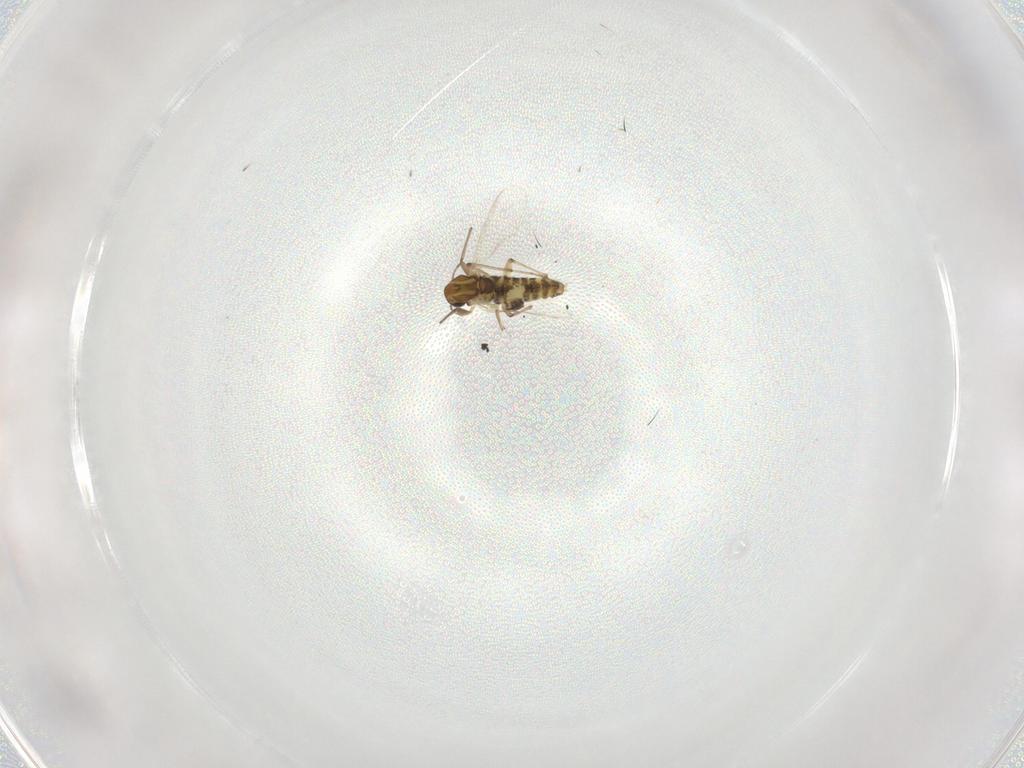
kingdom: Animalia
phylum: Arthropoda
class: Insecta
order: Diptera
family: Chironomidae
